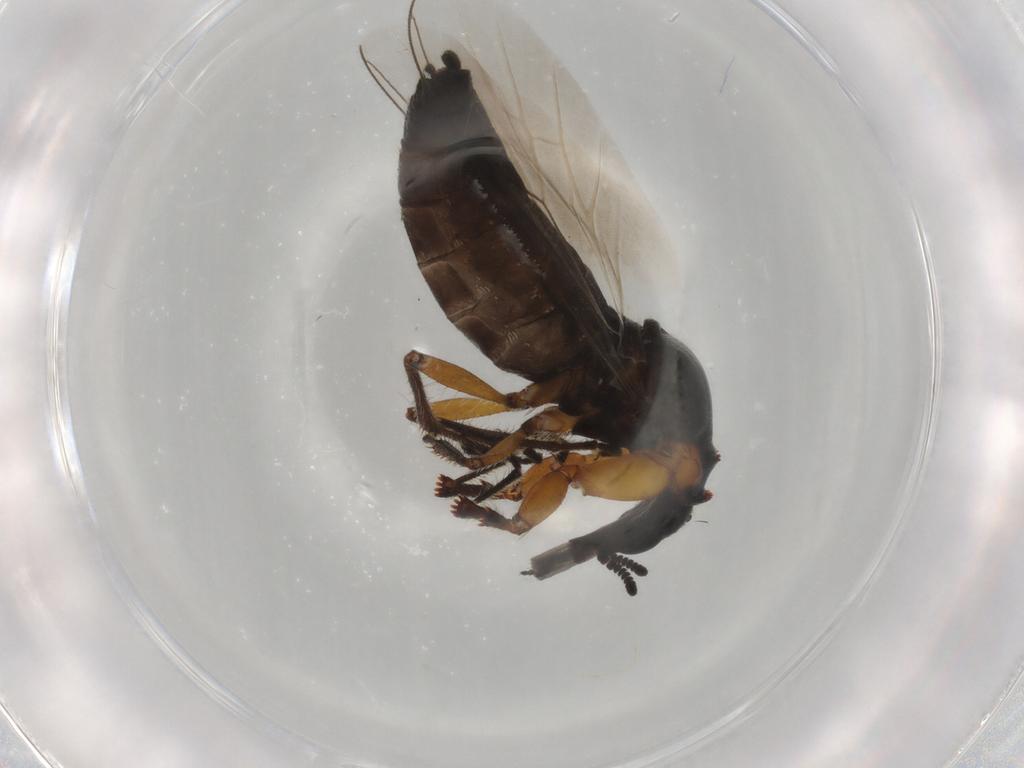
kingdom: Animalia
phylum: Arthropoda
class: Insecta
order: Diptera
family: Bibionidae
